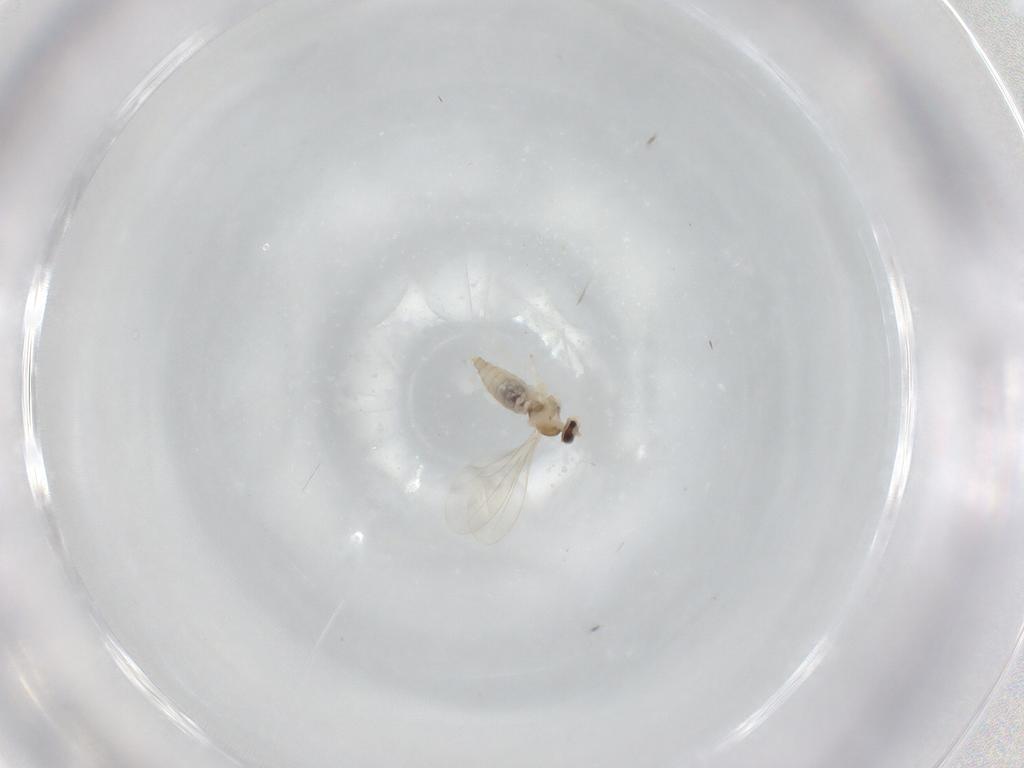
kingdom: Animalia
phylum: Arthropoda
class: Insecta
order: Diptera
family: Cecidomyiidae
